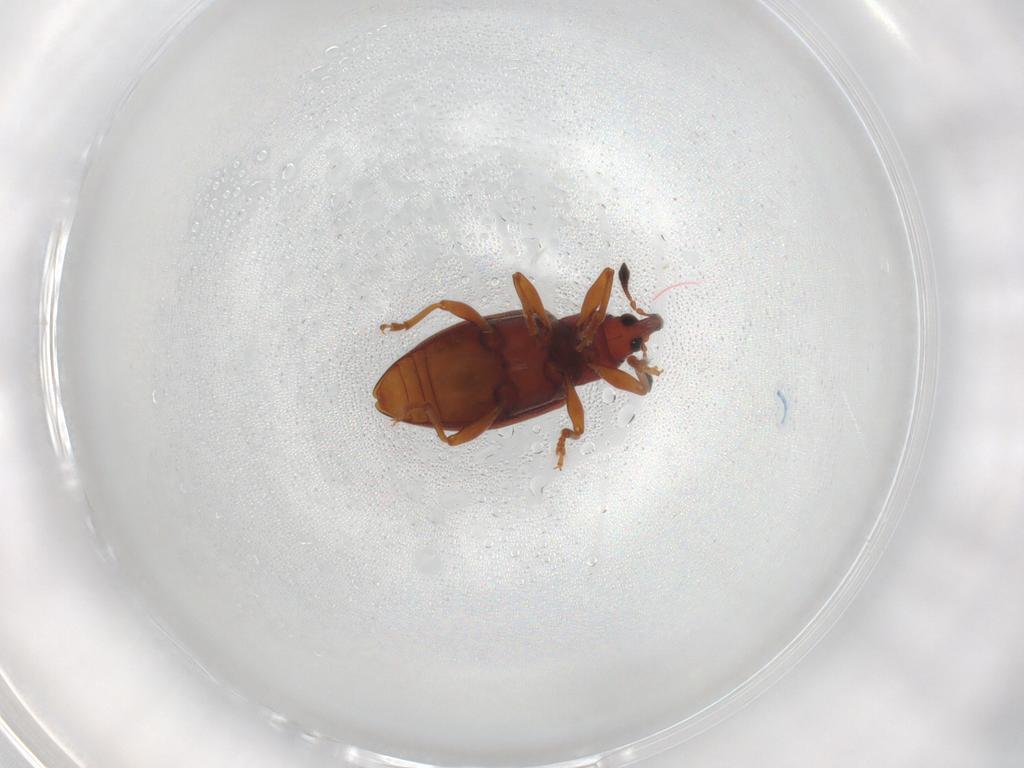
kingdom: Animalia
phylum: Arthropoda
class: Insecta
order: Coleoptera
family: Curculionidae
